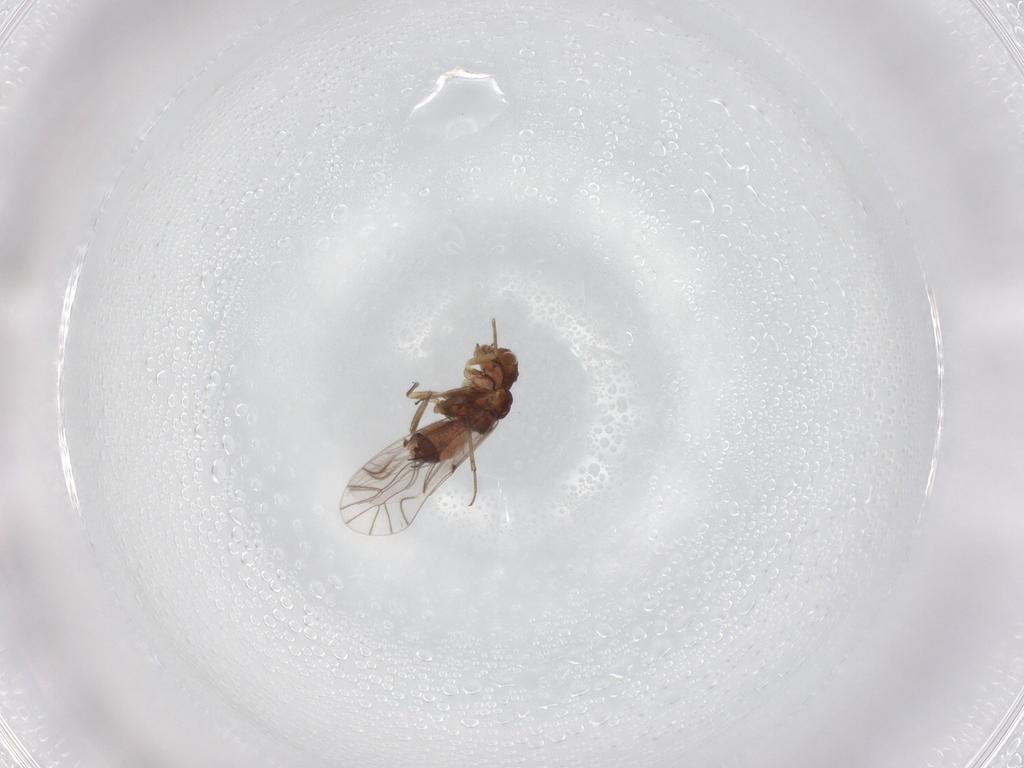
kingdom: Animalia
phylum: Arthropoda
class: Insecta
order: Psocodea
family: Lachesillidae
